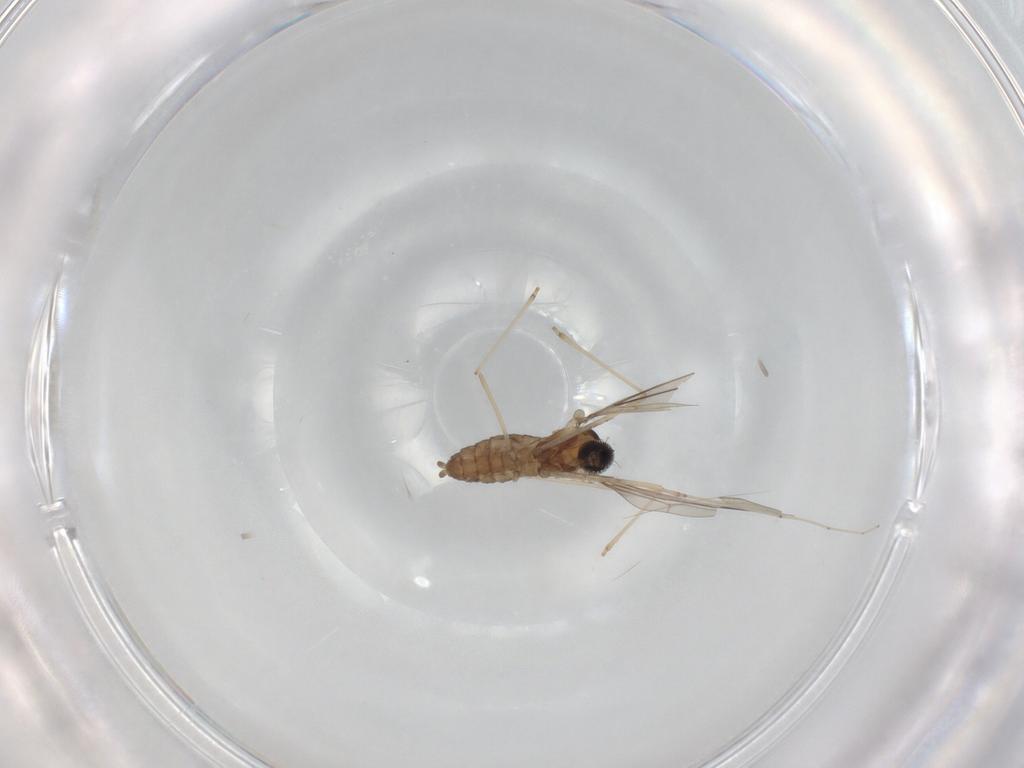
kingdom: Animalia
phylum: Arthropoda
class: Insecta
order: Diptera
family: Cecidomyiidae
